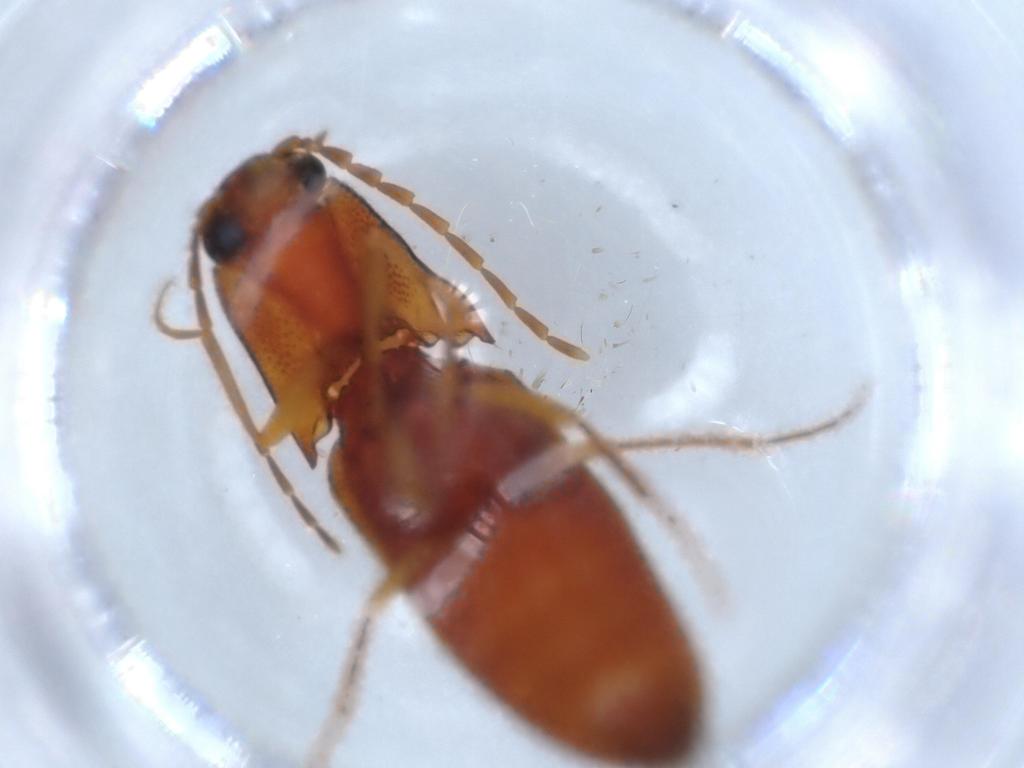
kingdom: Animalia
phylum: Arthropoda
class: Insecta
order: Coleoptera
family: Elateridae
